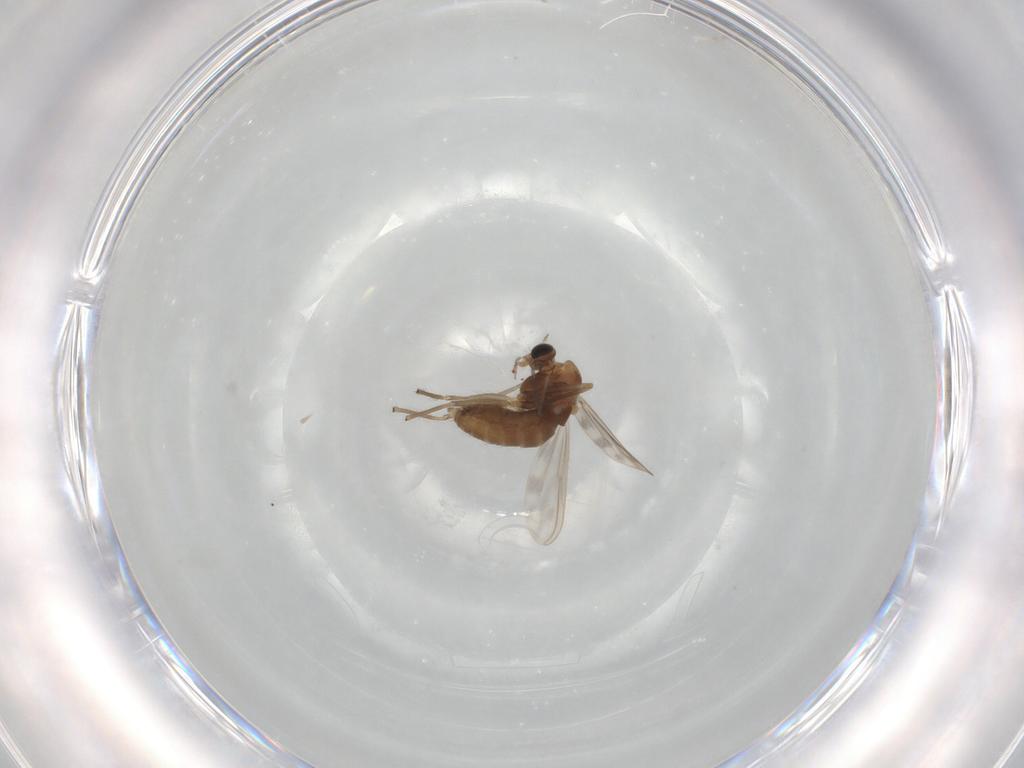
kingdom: Animalia
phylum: Arthropoda
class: Insecta
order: Diptera
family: Chironomidae
